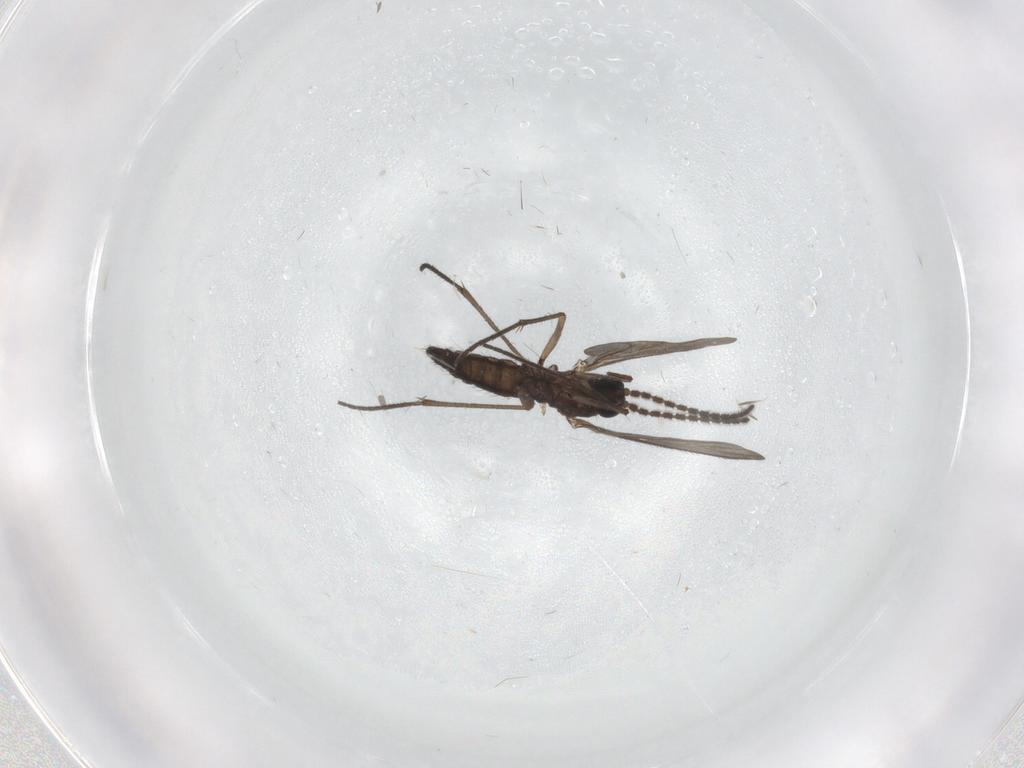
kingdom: Animalia
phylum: Arthropoda
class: Insecta
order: Diptera
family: Sciaridae
